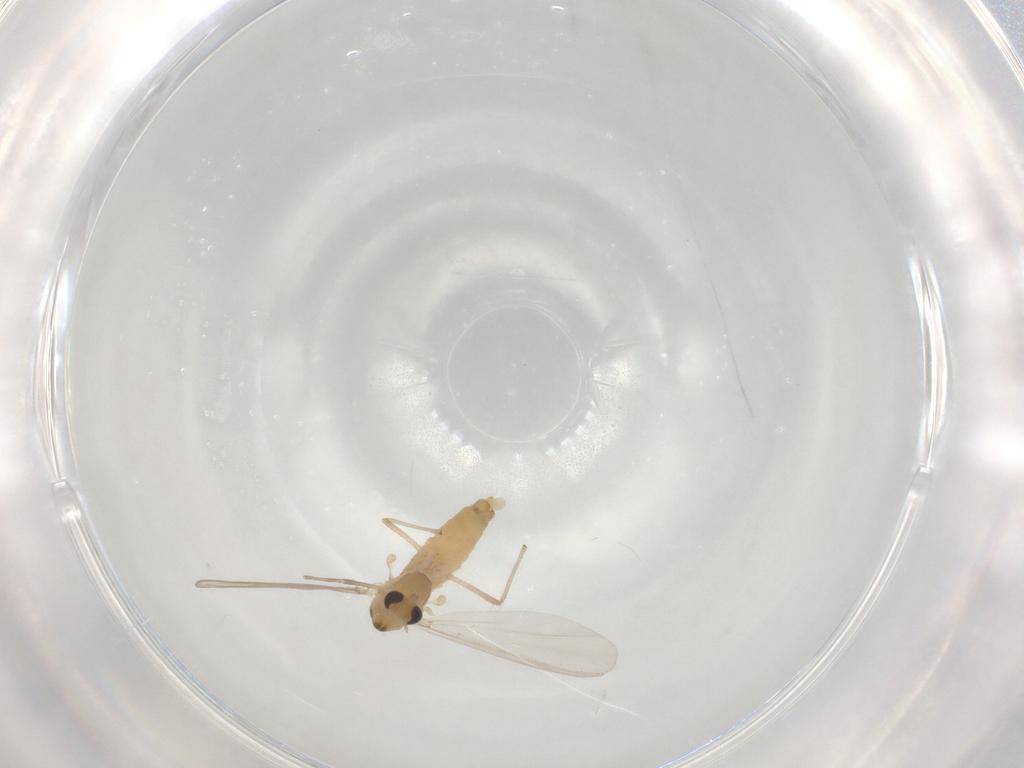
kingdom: Animalia
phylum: Arthropoda
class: Insecta
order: Diptera
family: Chironomidae
